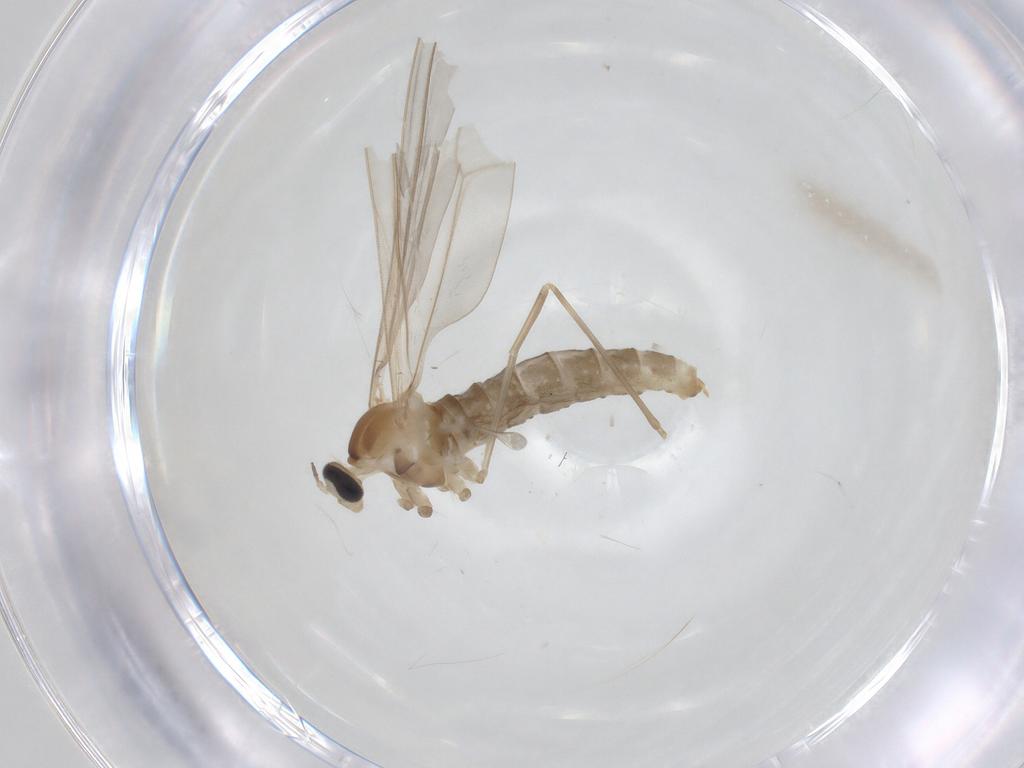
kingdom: Animalia
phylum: Arthropoda
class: Insecta
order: Diptera
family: Cecidomyiidae
